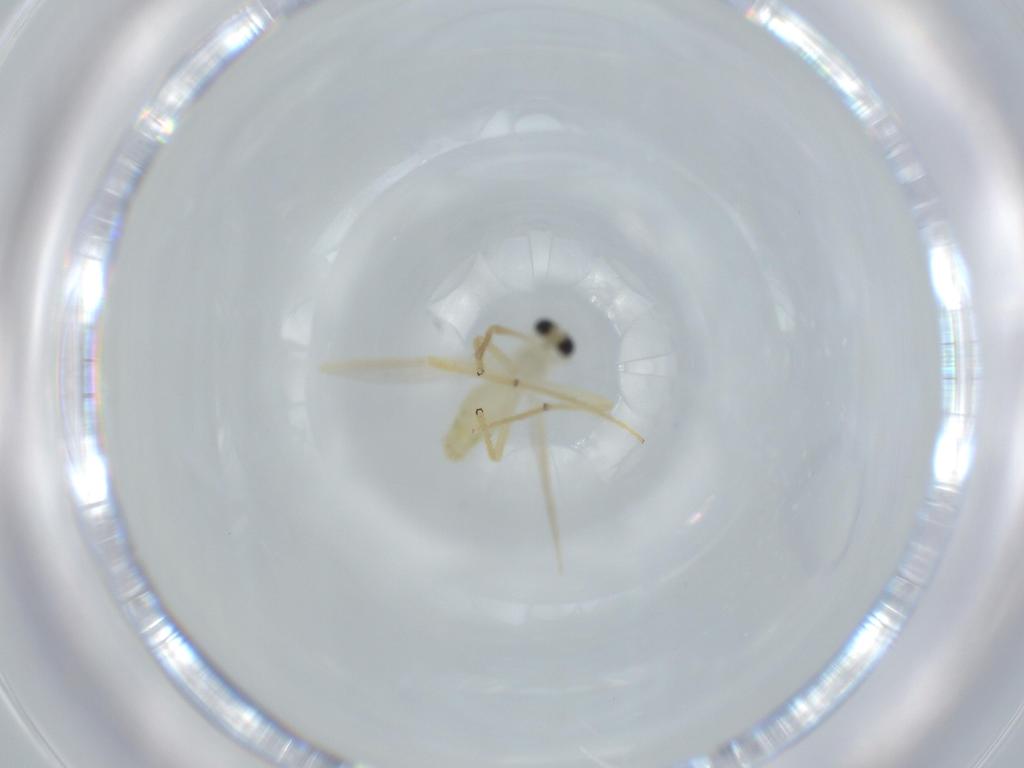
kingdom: Animalia
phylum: Arthropoda
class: Insecta
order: Diptera
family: Chironomidae
